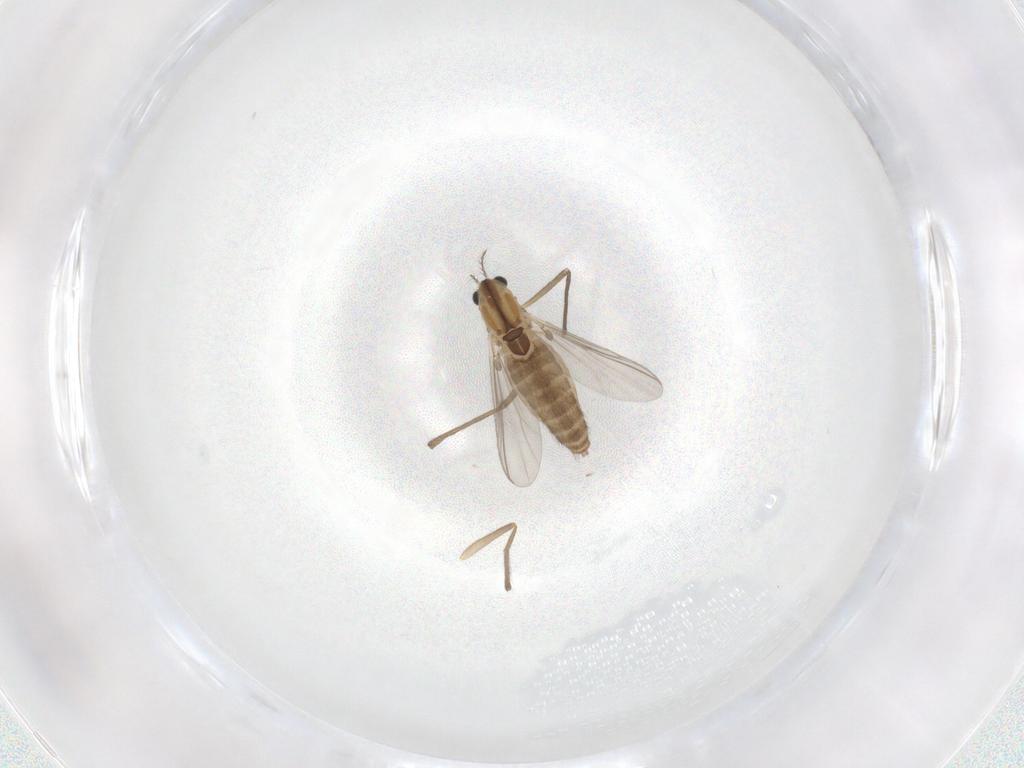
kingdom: Animalia
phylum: Arthropoda
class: Insecta
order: Diptera
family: Chironomidae
